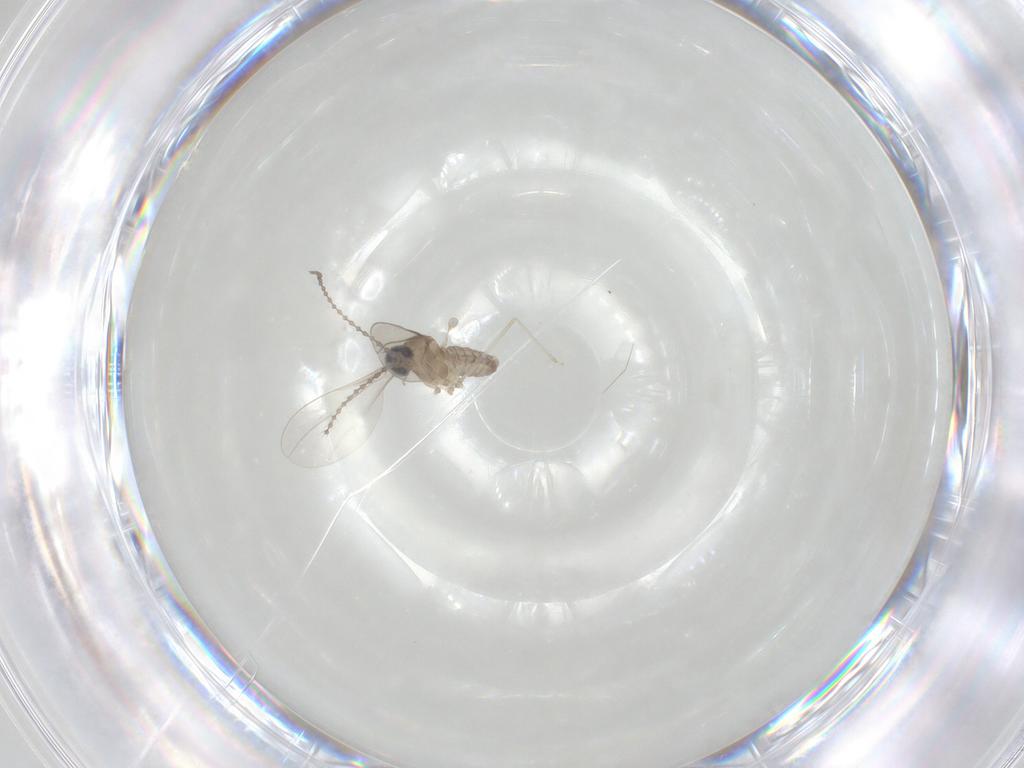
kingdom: Animalia
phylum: Arthropoda
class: Insecta
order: Diptera
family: Cecidomyiidae
